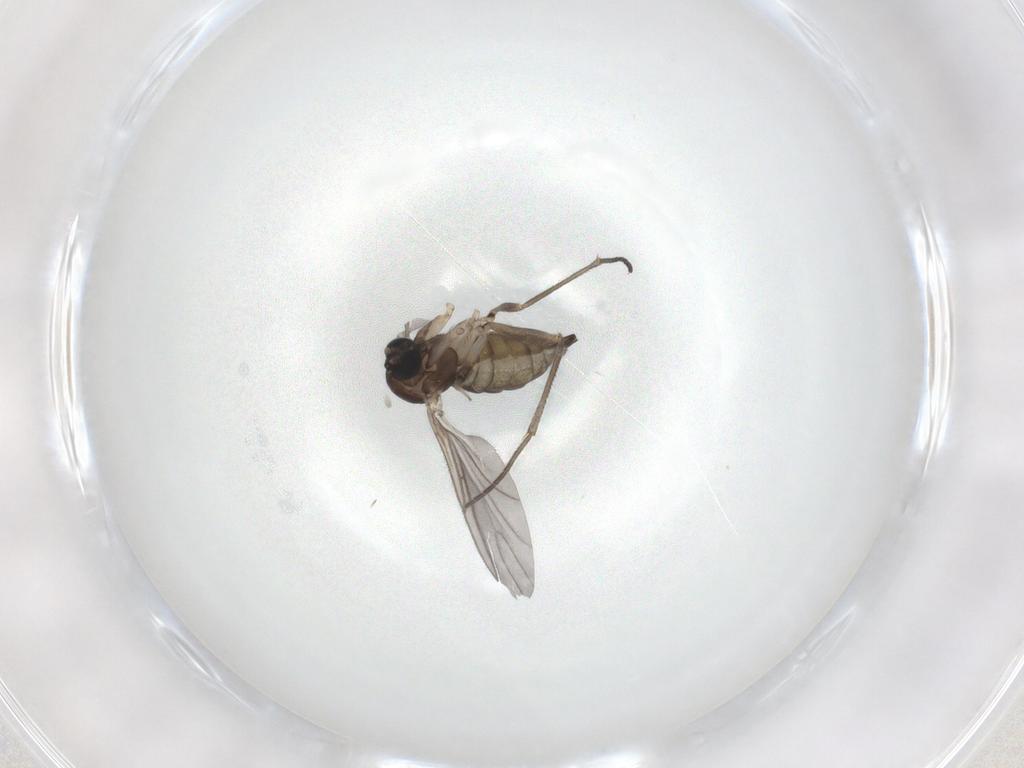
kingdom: Animalia
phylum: Arthropoda
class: Insecta
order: Diptera
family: Sciaridae
